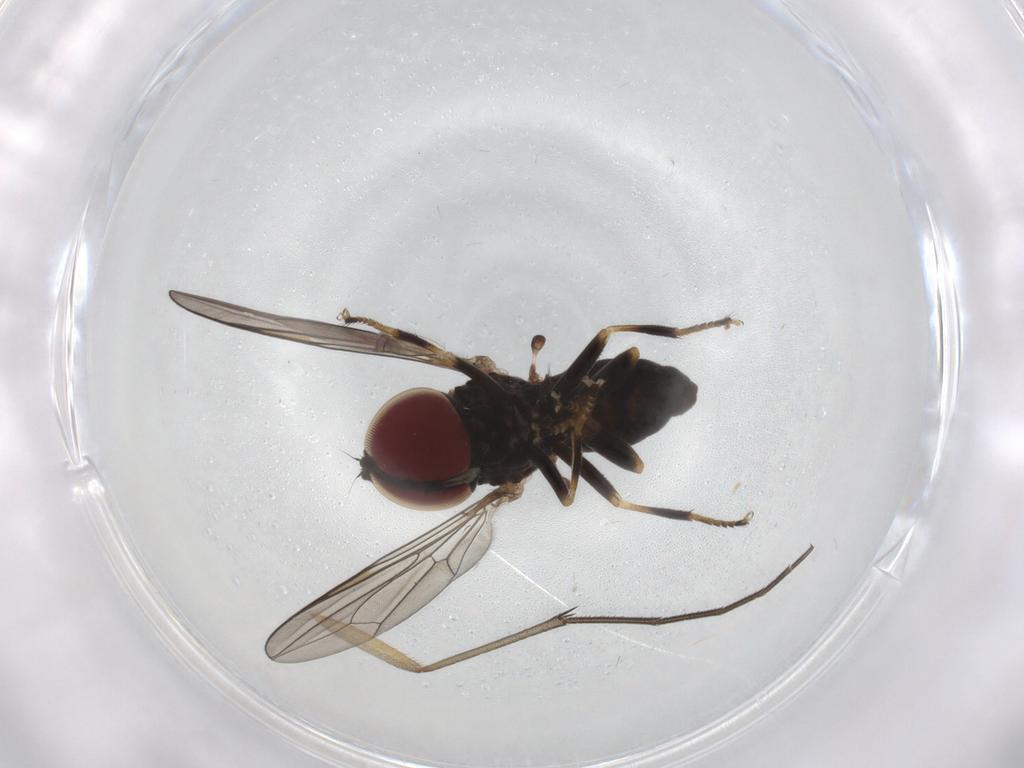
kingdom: Animalia
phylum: Arthropoda
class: Insecta
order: Diptera
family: Pipunculidae
